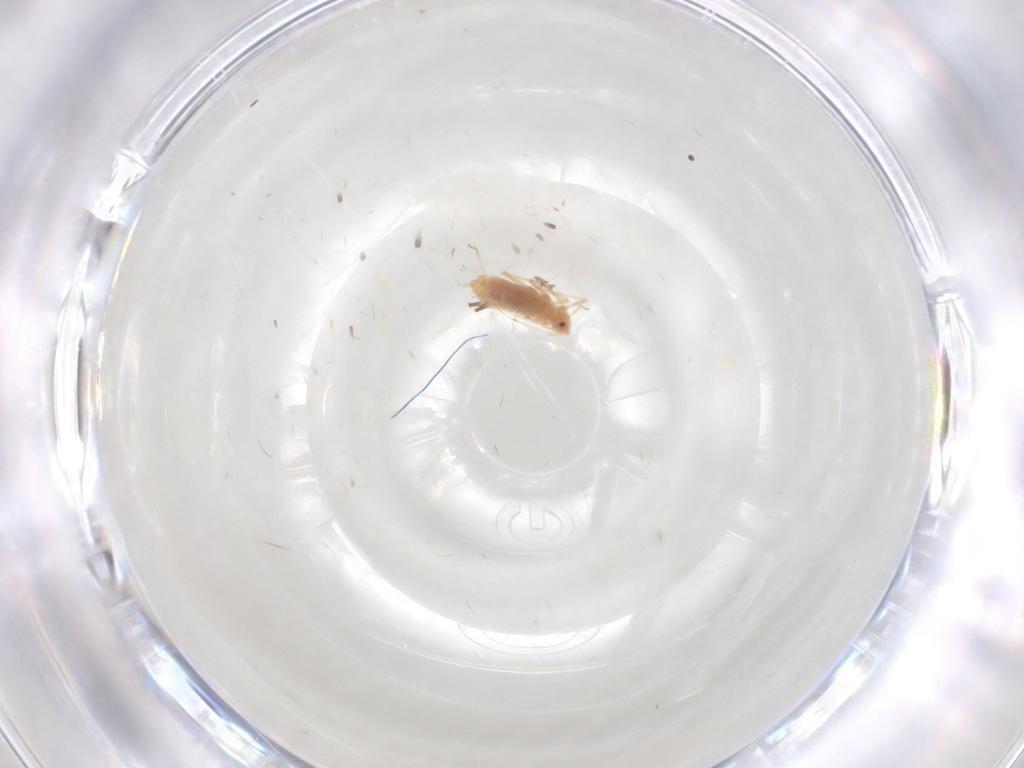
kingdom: Animalia
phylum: Arthropoda
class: Insecta
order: Hemiptera
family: Aphididae
